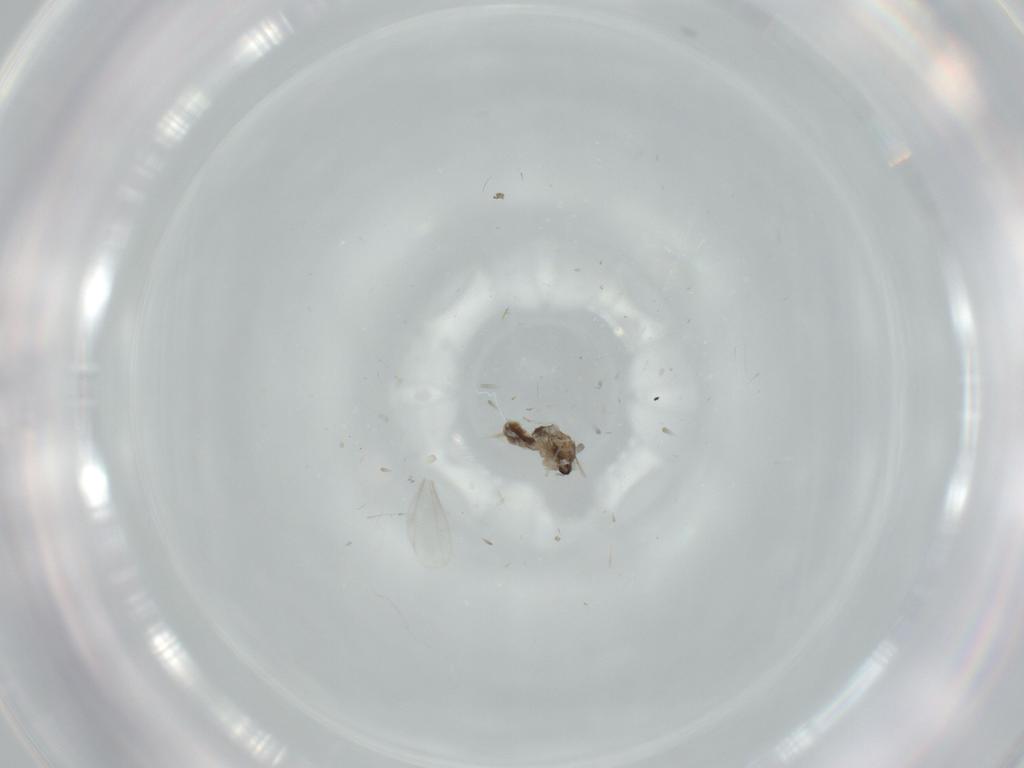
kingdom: Animalia
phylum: Arthropoda
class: Insecta
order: Diptera
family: Cecidomyiidae
